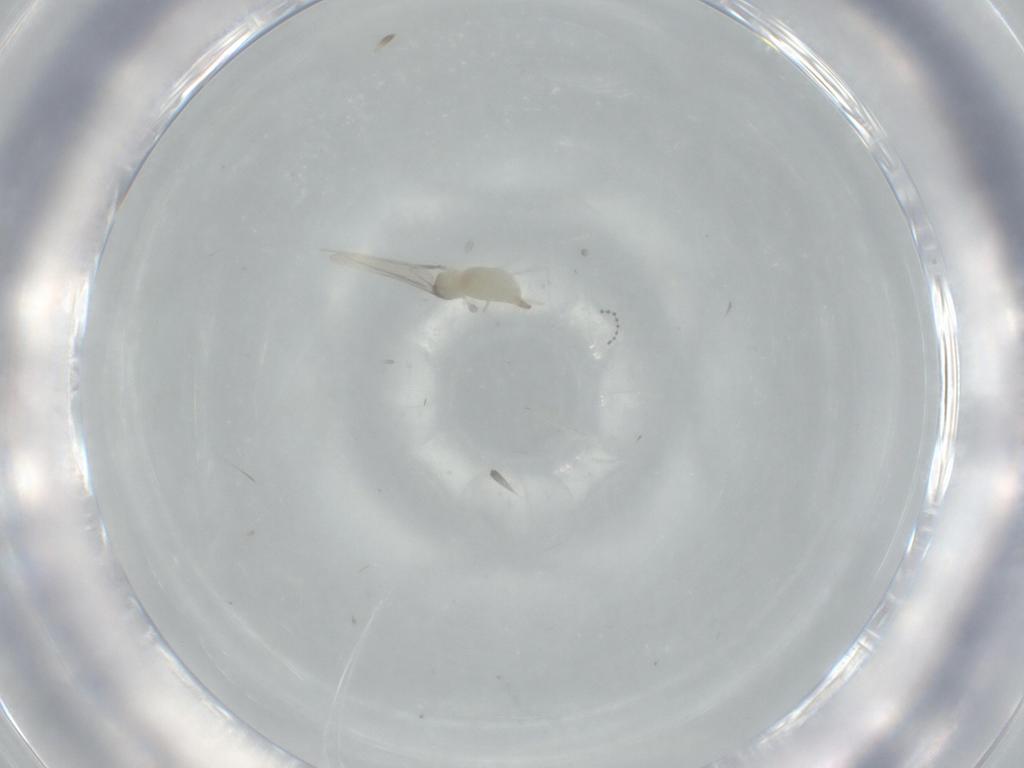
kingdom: Animalia
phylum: Arthropoda
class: Insecta
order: Diptera
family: Cecidomyiidae
